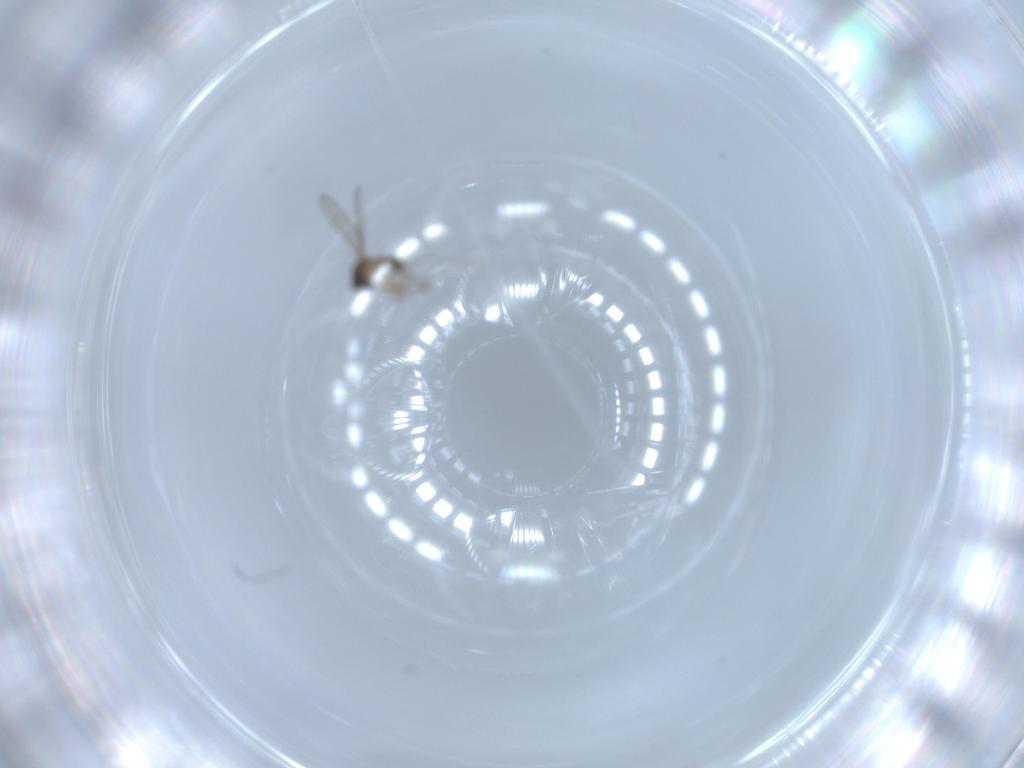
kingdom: Animalia
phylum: Arthropoda
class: Insecta
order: Diptera
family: Cecidomyiidae
